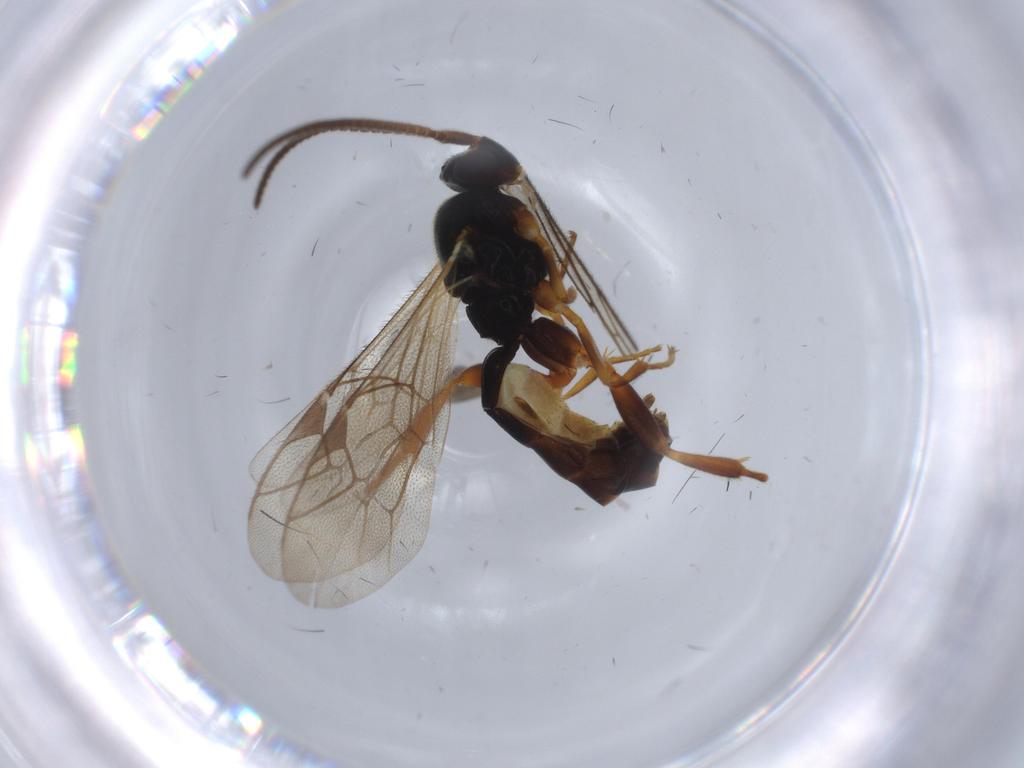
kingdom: Animalia
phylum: Arthropoda
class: Insecta
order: Hymenoptera
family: Ichneumonidae
